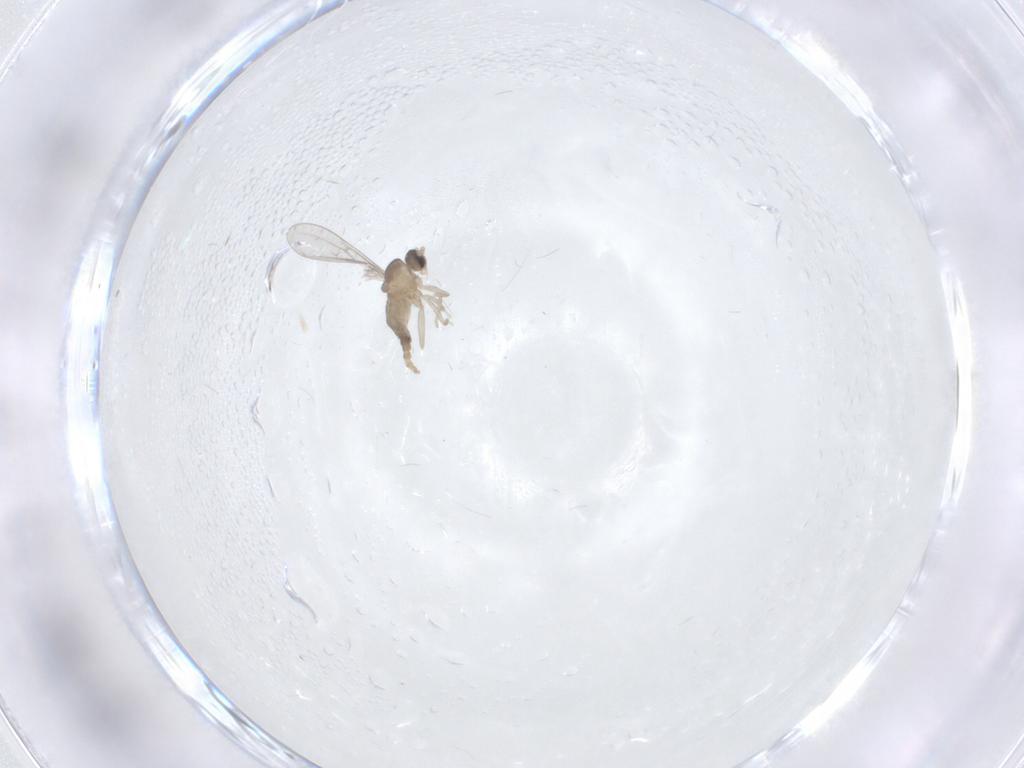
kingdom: Animalia
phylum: Arthropoda
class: Insecta
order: Diptera
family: Cecidomyiidae
